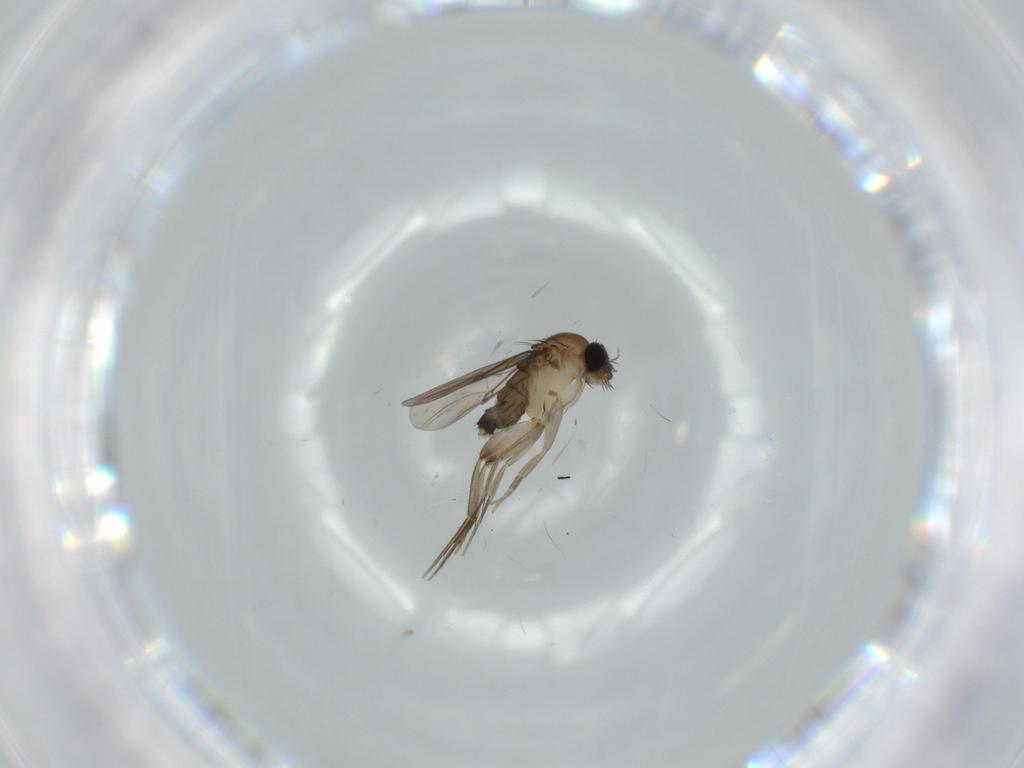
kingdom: Animalia
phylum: Arthropoda
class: Insecta
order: Diptera
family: Phoridae
